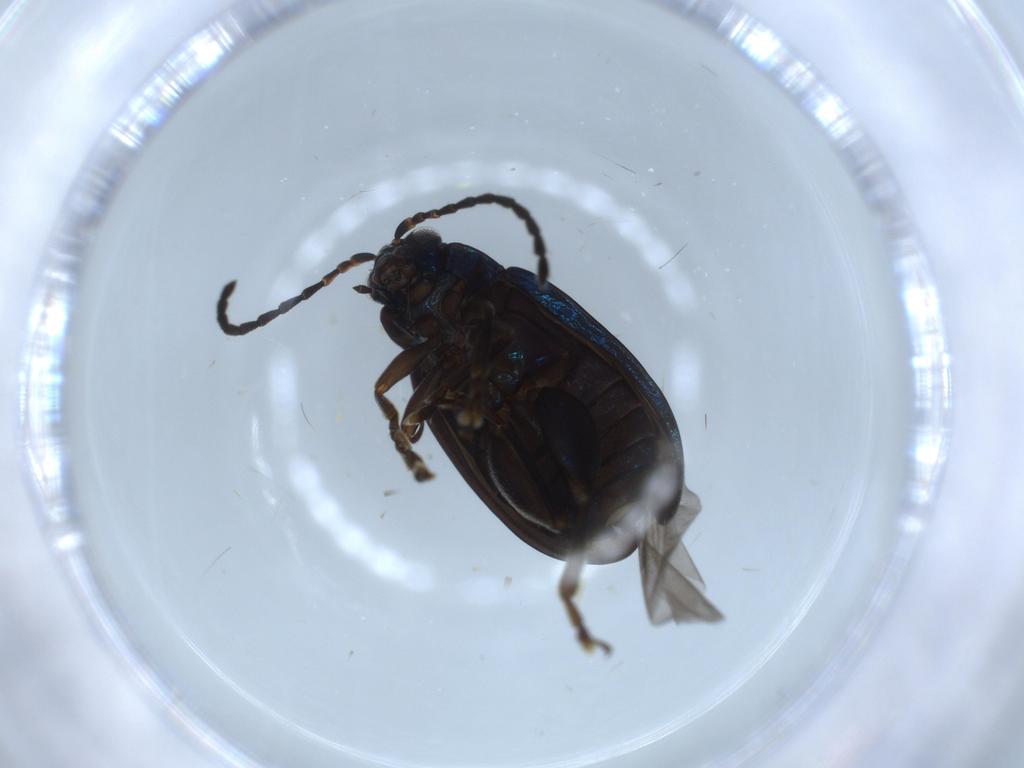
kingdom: Animalia
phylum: Arthropoda
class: Insecta
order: Coleoptera
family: Chrysomelidae
